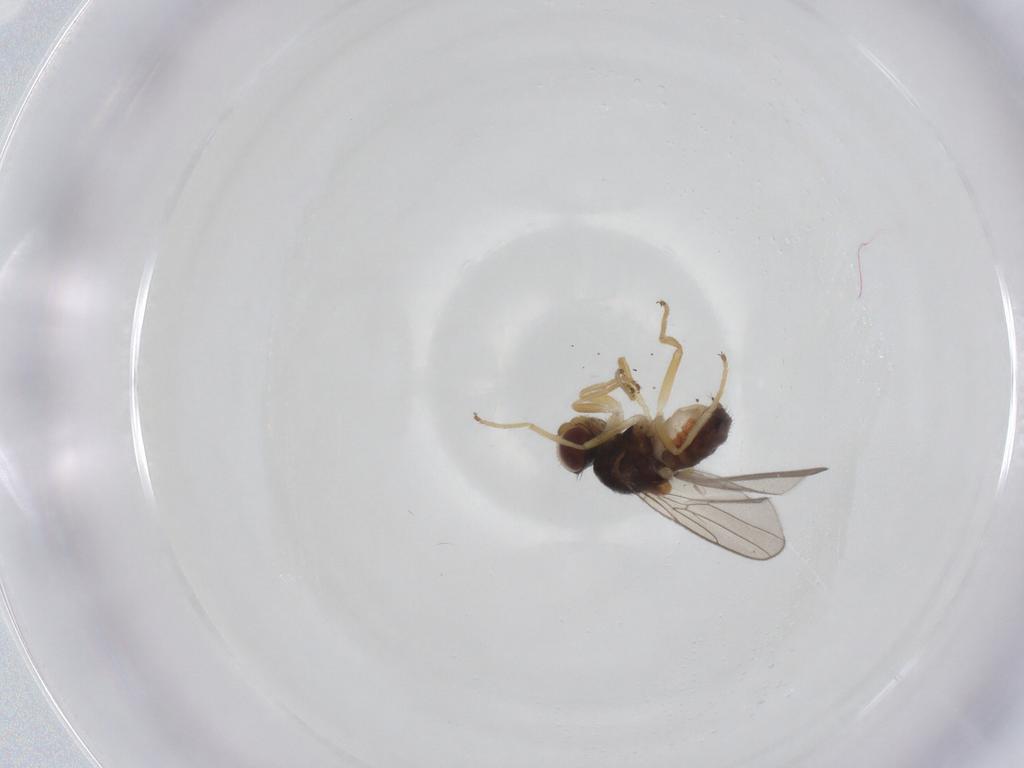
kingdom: Animalia
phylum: Arthropoda
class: Insecta
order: Diptera
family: Chloropidae
